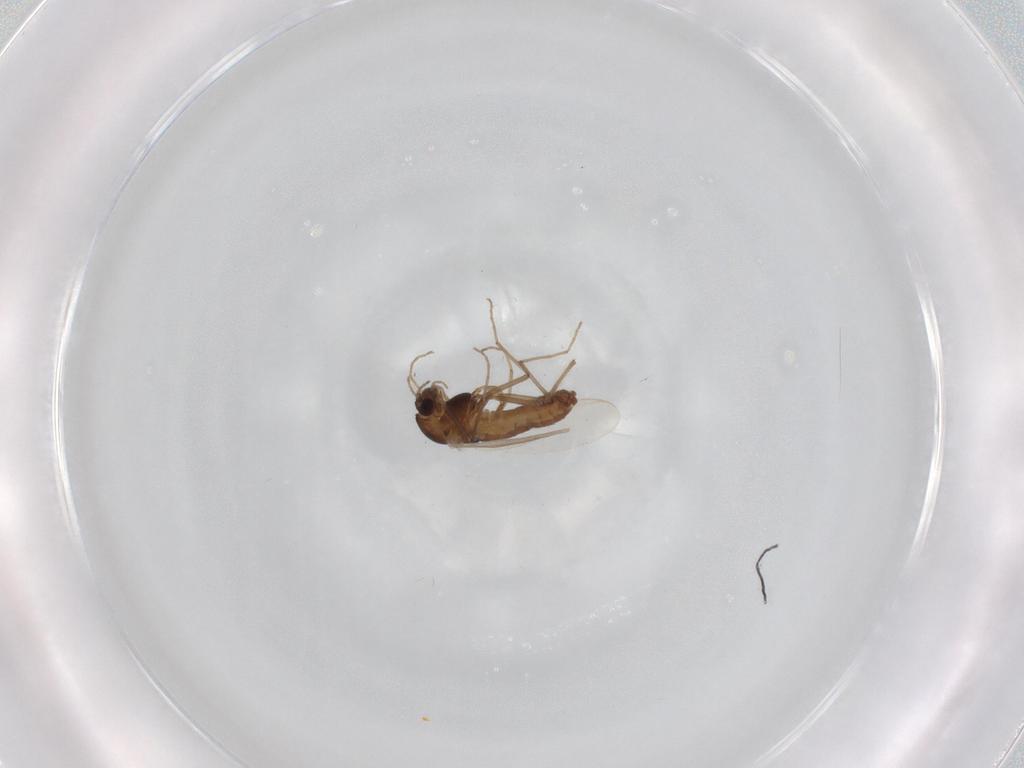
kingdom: Animalia
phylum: Arthropoda
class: Insecta
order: Diptera
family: Chironomidae
